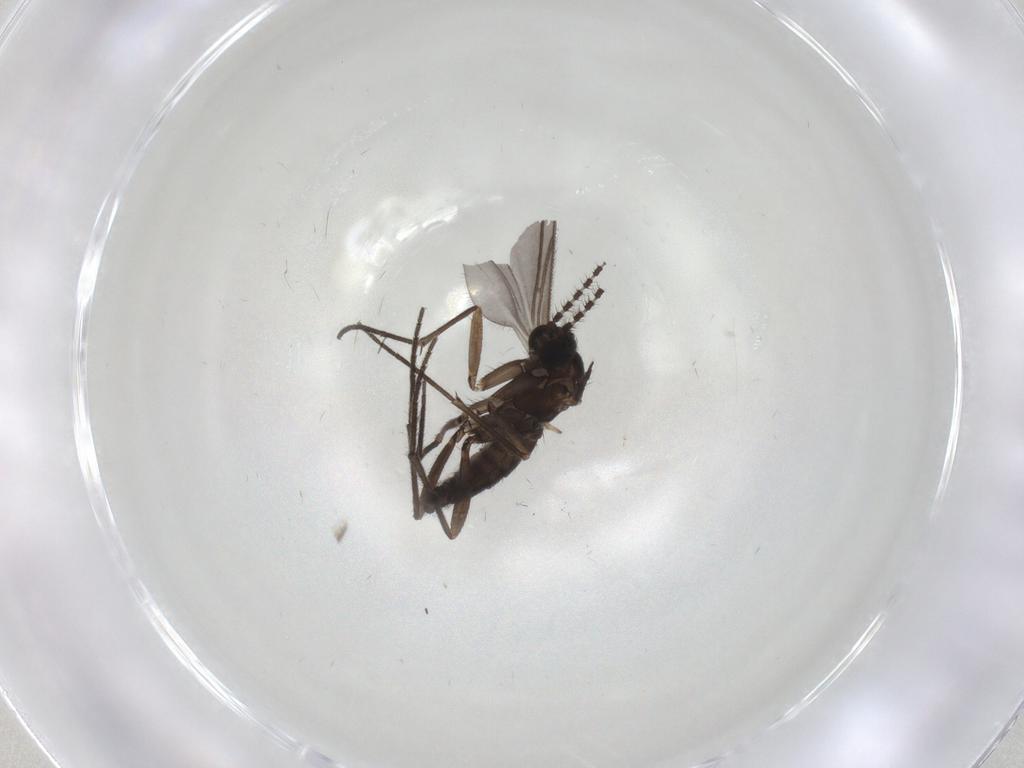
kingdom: Animalia
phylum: Arthropoda
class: Insecta
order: Diptera
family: Sciaridae
